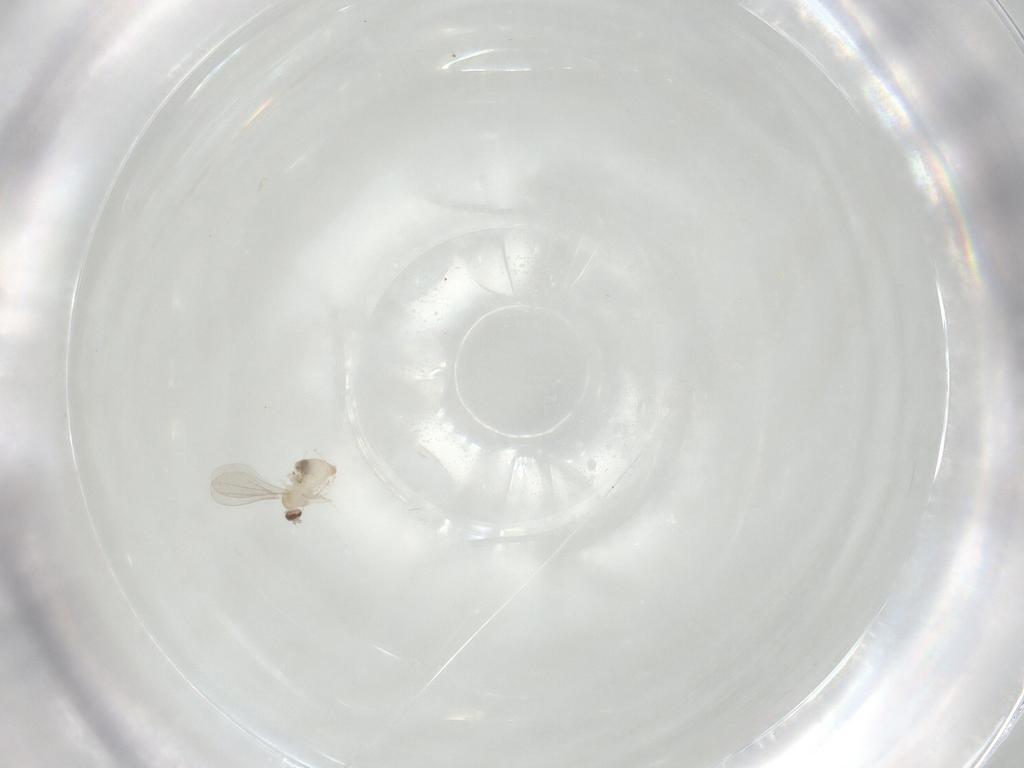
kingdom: Animalia
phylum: Arthropoda
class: Insecta
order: Diptera
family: Cecidomyiidae
